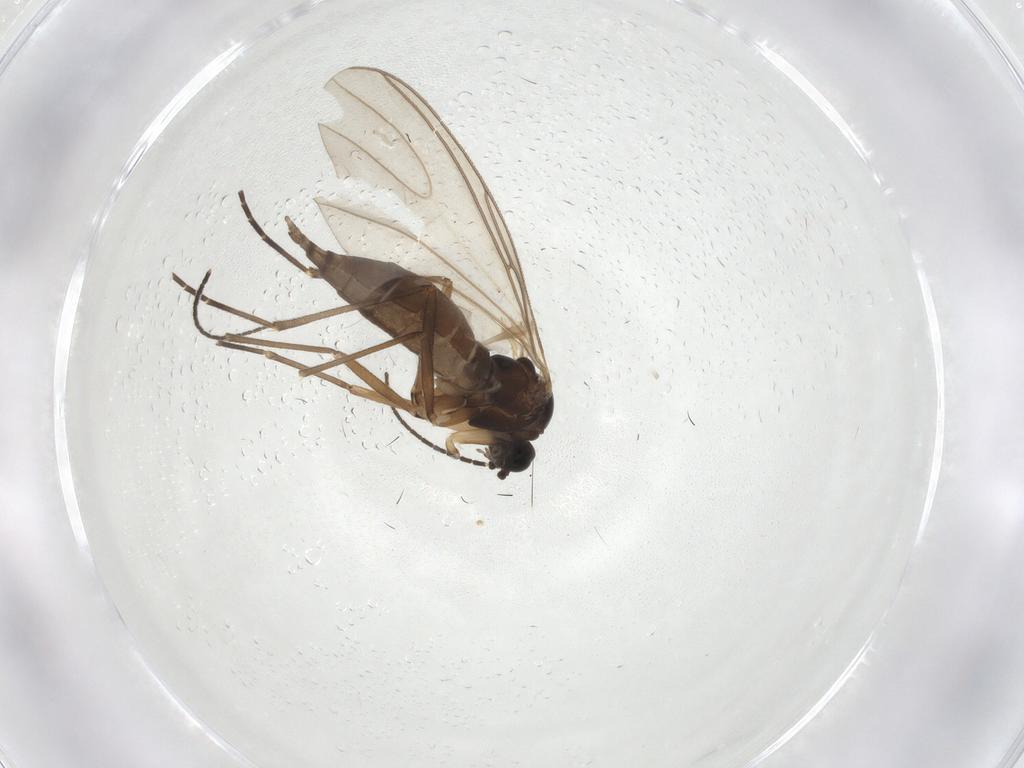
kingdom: Animalia
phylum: Arthropoda
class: Insecta
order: Diptera
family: Sciaridae
